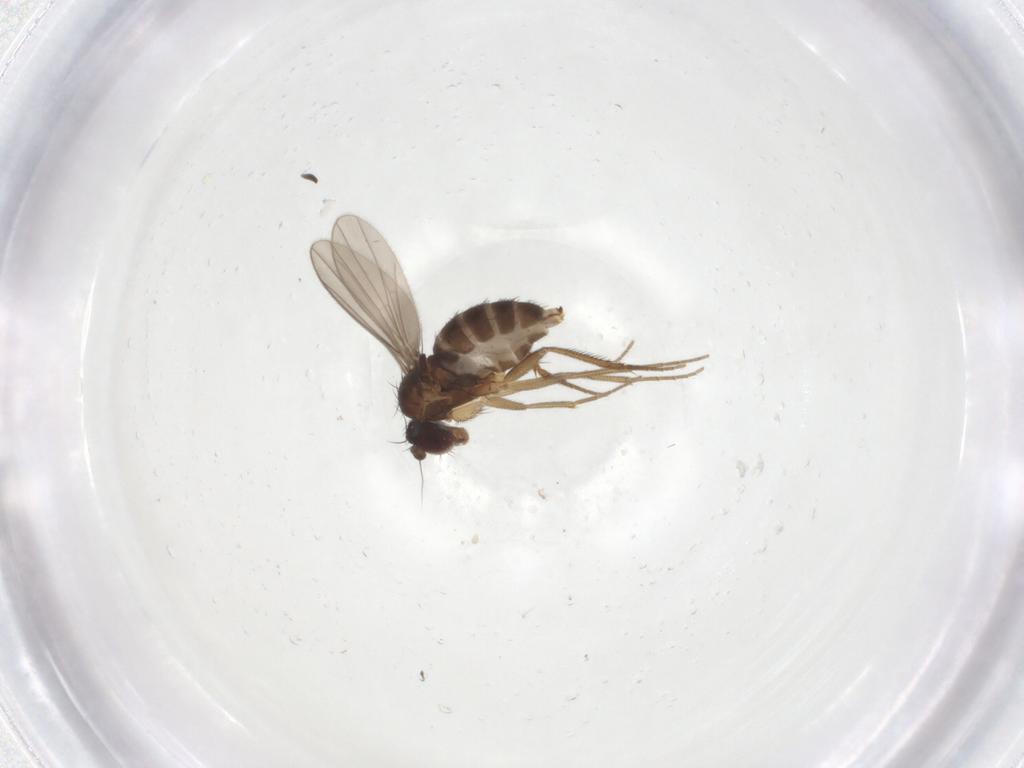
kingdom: Animalia
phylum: Arthropoda
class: Insecta
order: Diptera
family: Dolichopodidae
